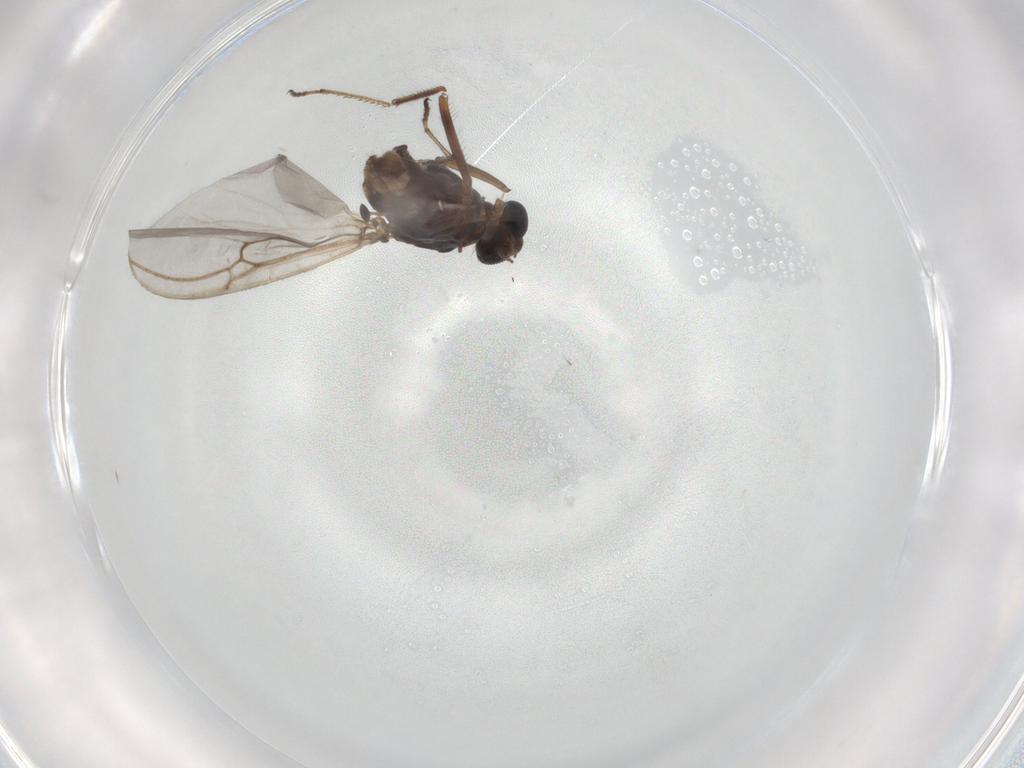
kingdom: Animalia
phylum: Arthropoda
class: Insecta
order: Diptera
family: Ceratopogonidae
